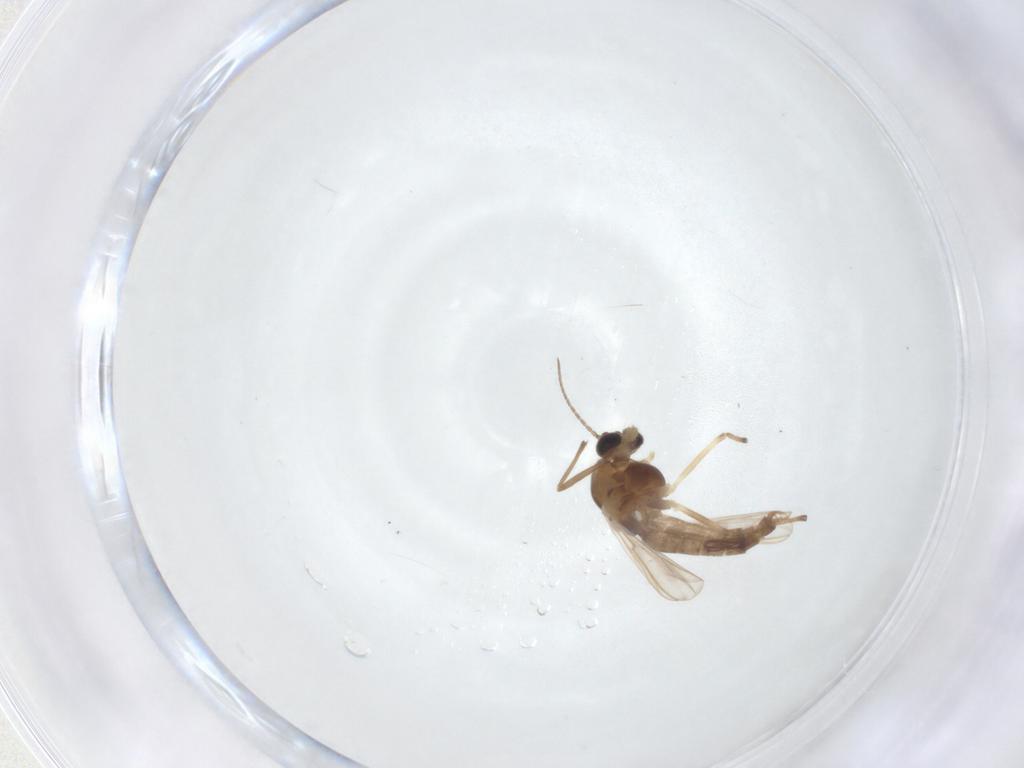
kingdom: Animalia
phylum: Arthropoda
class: Insecta
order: Diptera
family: Chironomidae
